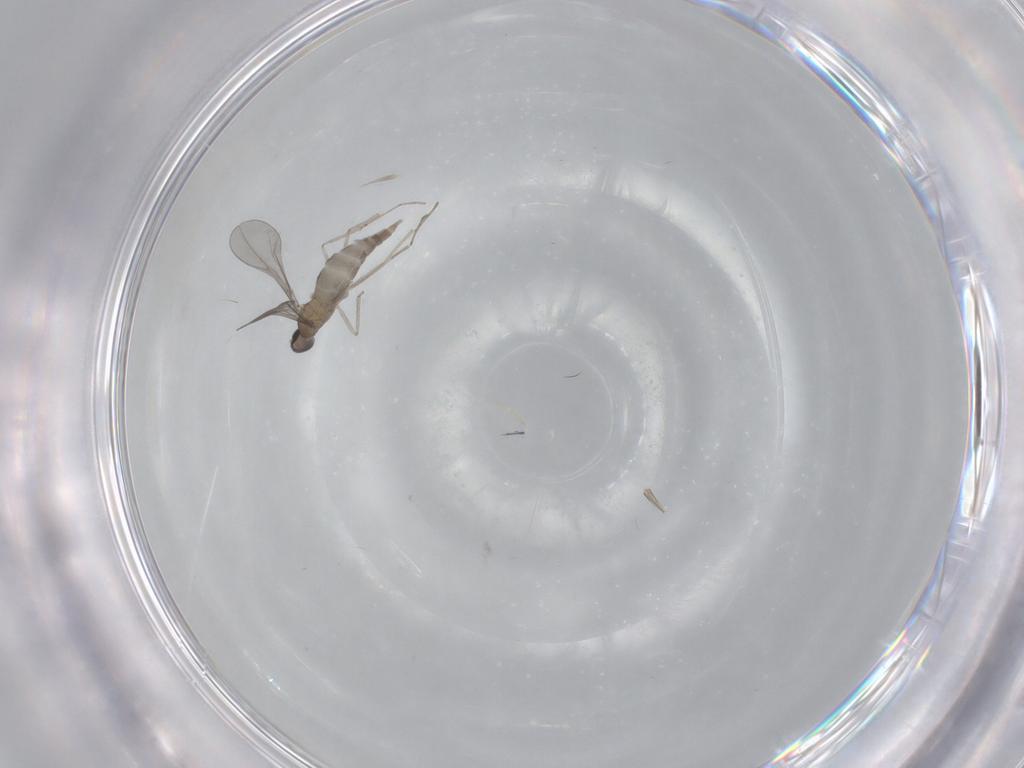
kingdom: Animalia
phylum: Arthropoda
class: Insecta
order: Diptera
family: Cecidomyiidae
